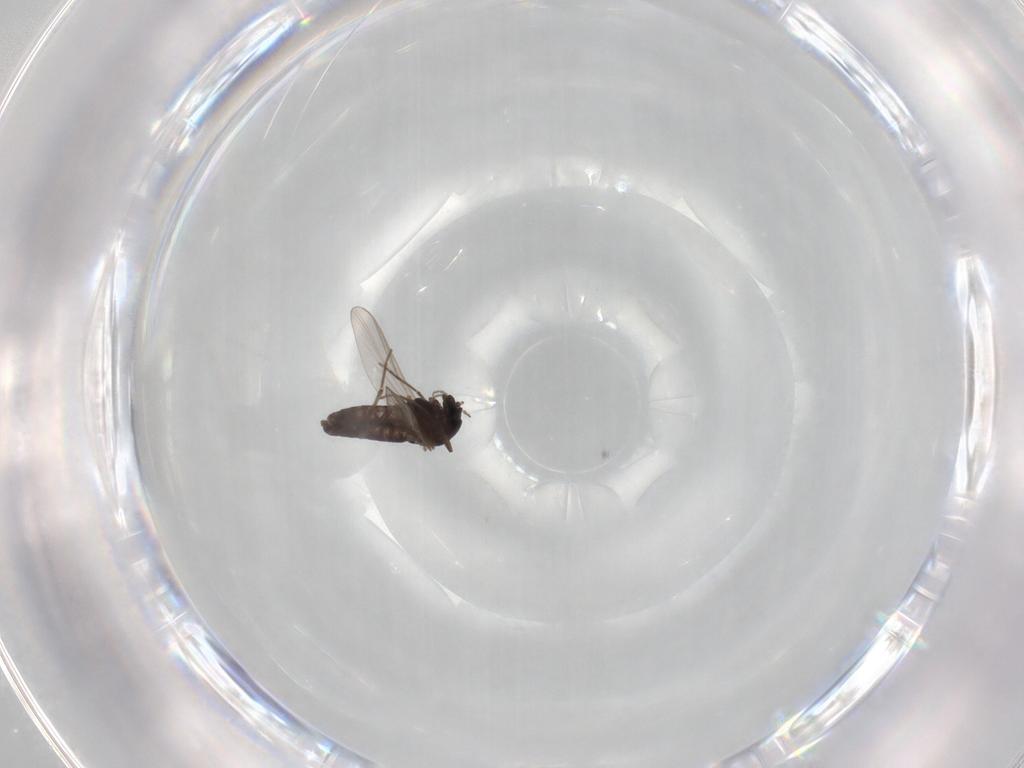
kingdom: Animalia
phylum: Arthropoda
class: Insecta
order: Diptera
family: Chironomidae
